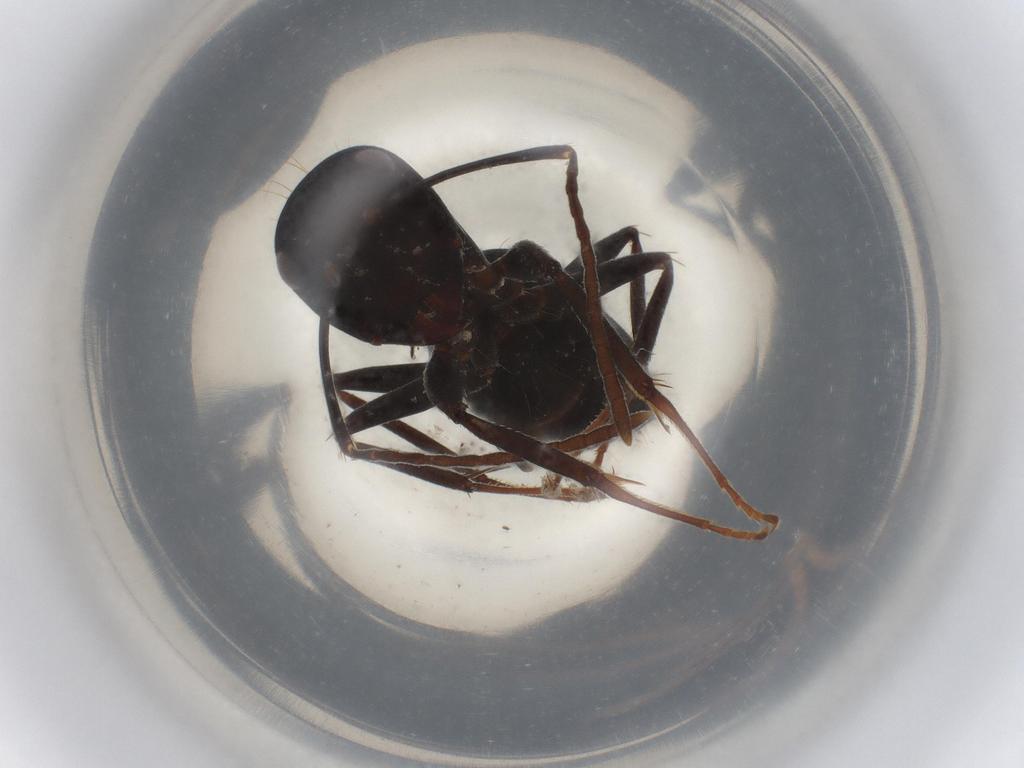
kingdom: Animalia
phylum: Arthropoda
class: Insecta
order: Hymenoptera
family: Formicidae
